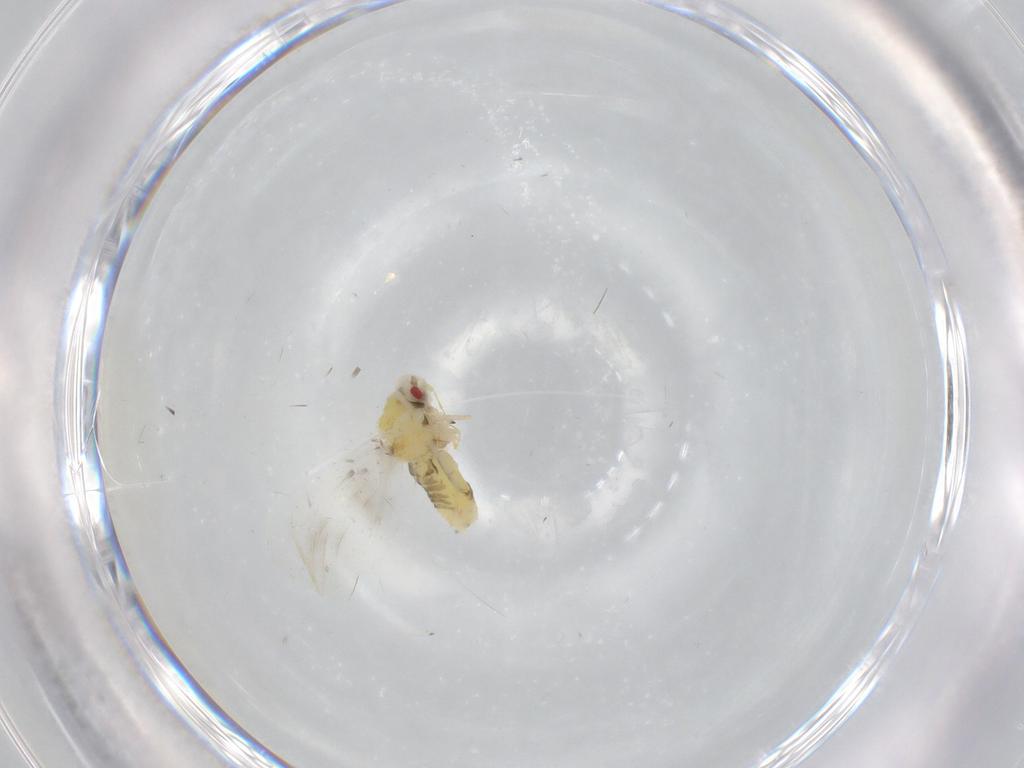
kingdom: Animalia
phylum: Arthropoda
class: Insecta
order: Hemiptera
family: Aleyrodidae
